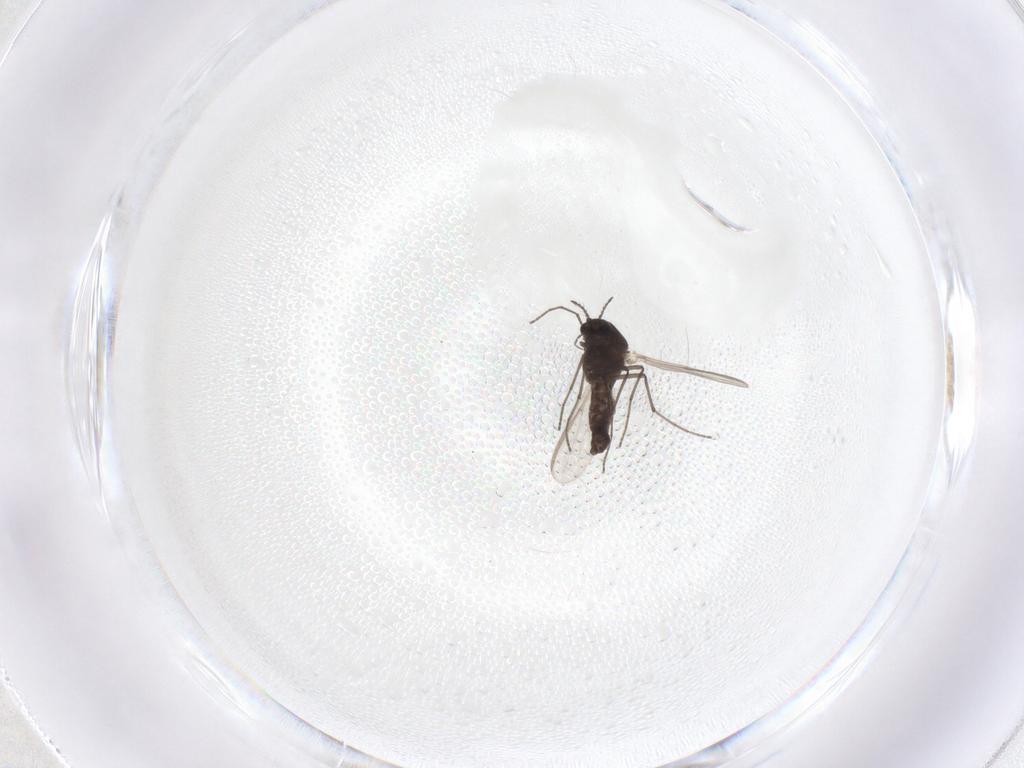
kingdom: Animalia
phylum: Arthropoda
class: Insecta
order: Diptera
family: Chironomidae
